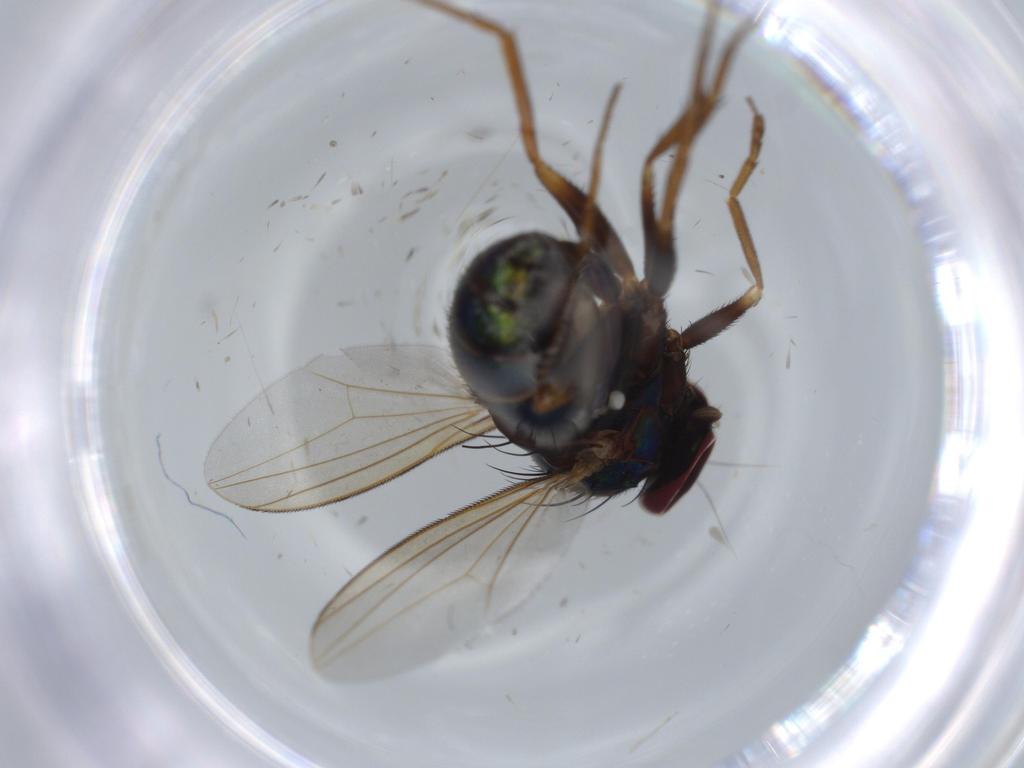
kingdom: Animalia
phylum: Arthropoda
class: Insecta
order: Diptera
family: Dolichopodidae
